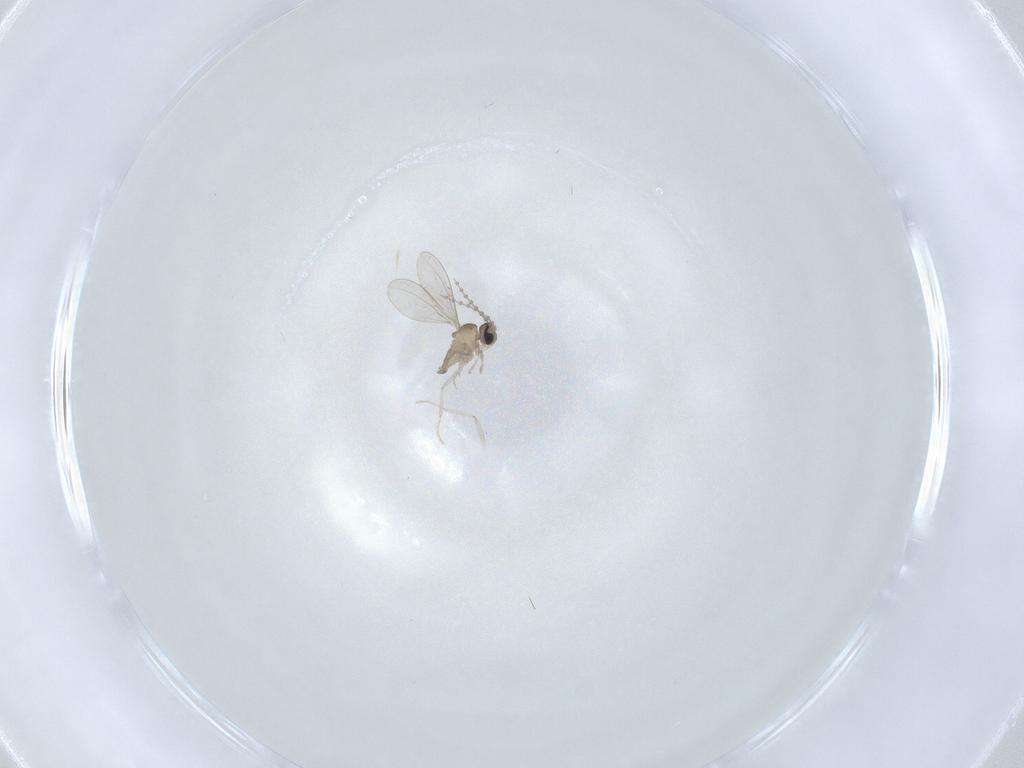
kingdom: Animalia
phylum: Arthropoda
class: Insecta
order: Diptera
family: Cecidomyiidae
